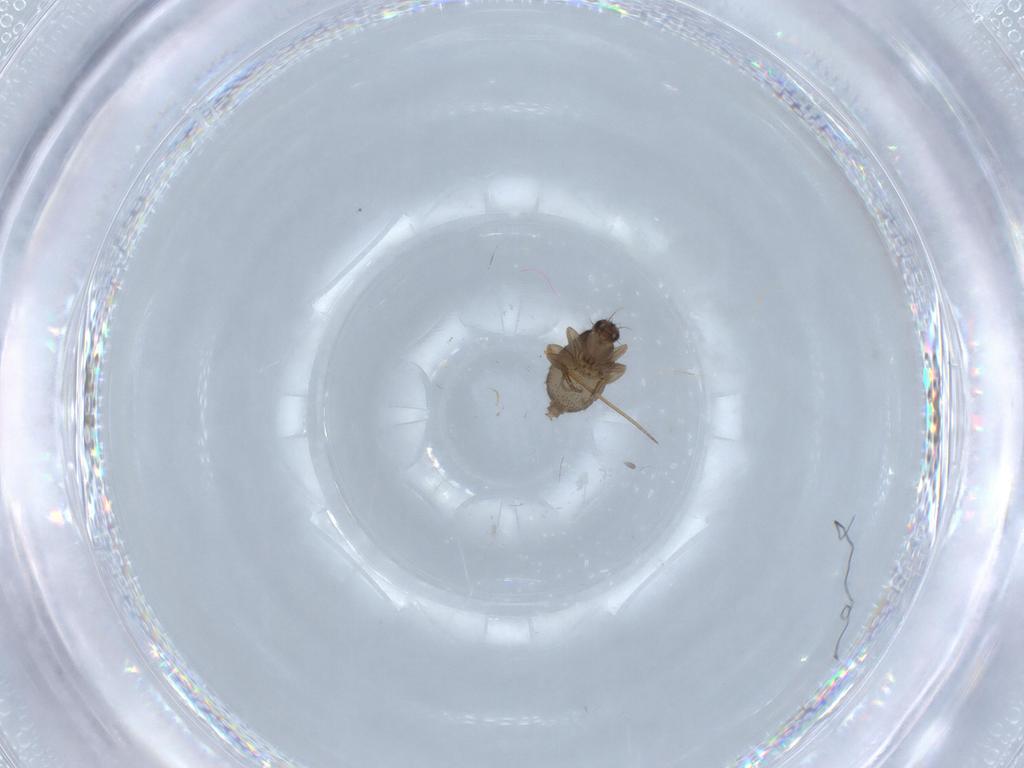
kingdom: Animalia
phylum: Arthropoda
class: Insecta
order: Diptera
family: Phoridae
